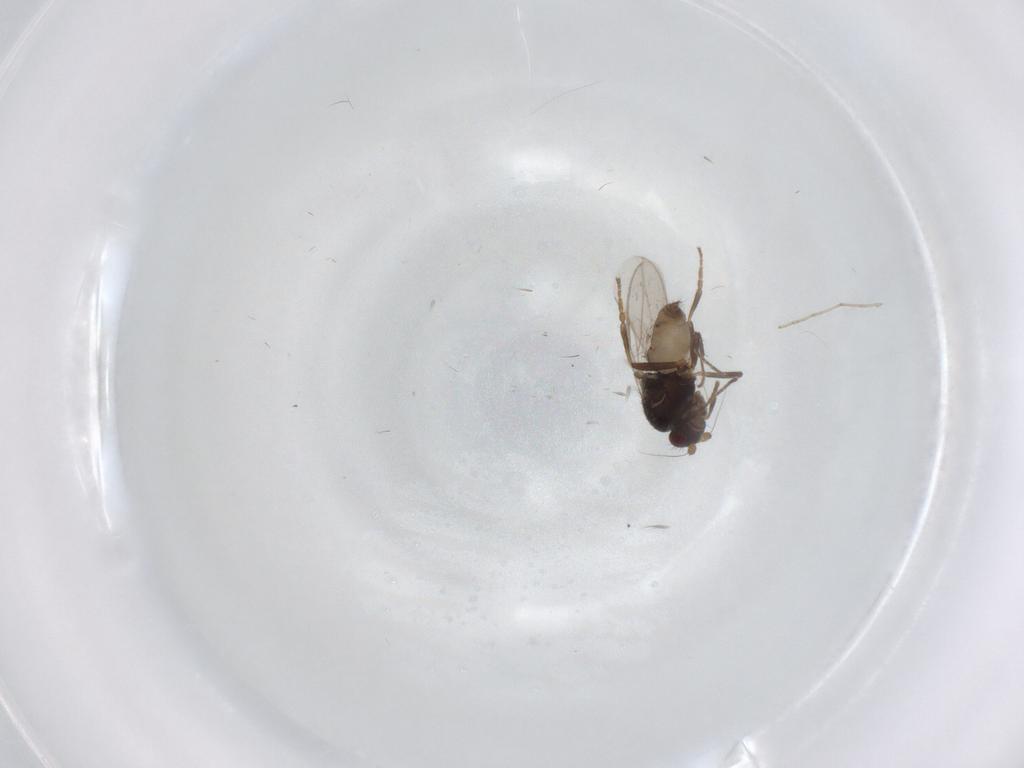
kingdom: Animalia
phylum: Arthropoda
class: Insecta
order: Diptera
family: Sphaeroceridae
